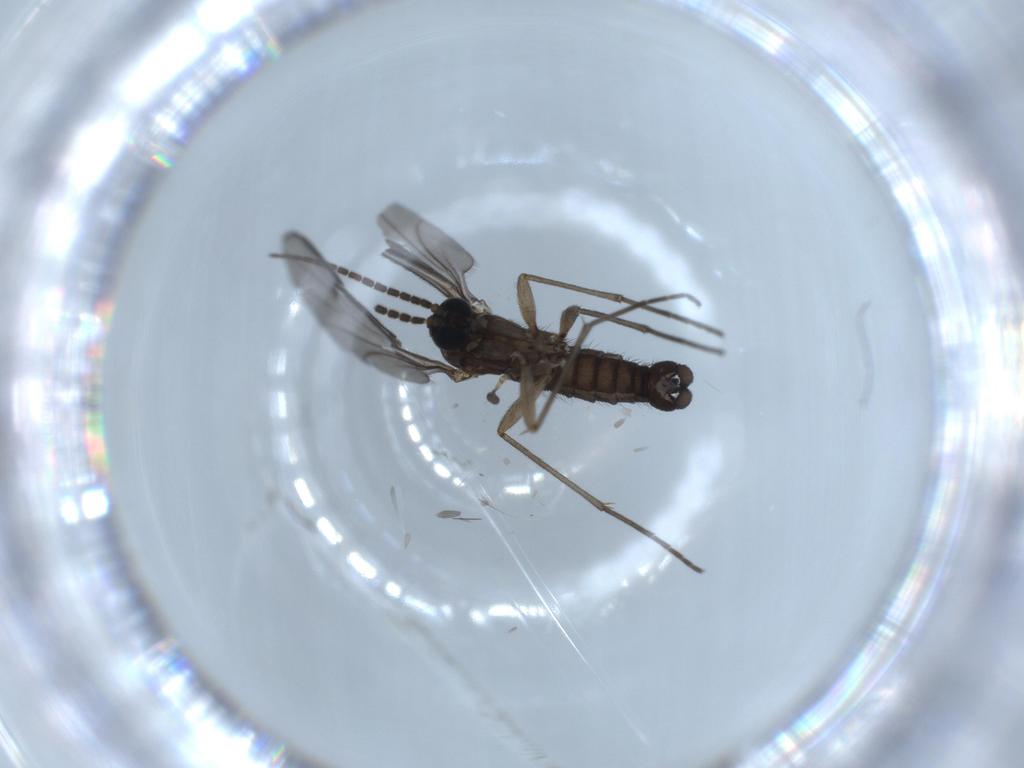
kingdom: Animalia
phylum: Arthropoda
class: Insecta
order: Diptera
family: Sciaridae
